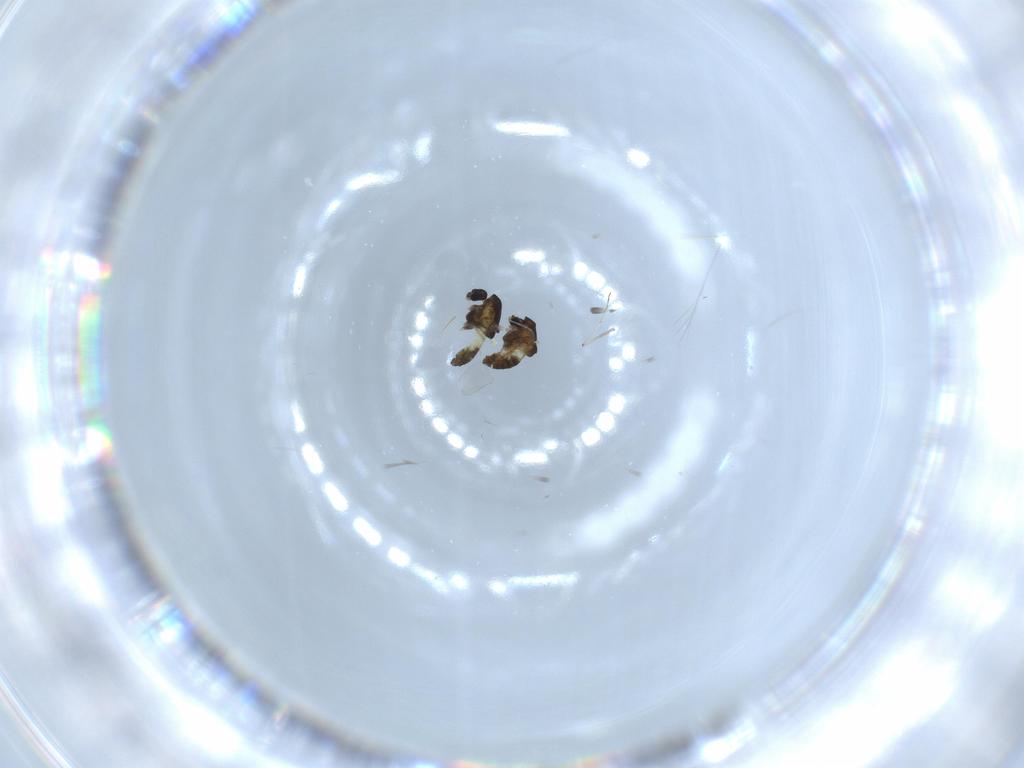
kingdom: Animalia
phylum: Arthropoda
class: Insecta
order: Diptera
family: Chironomidae
